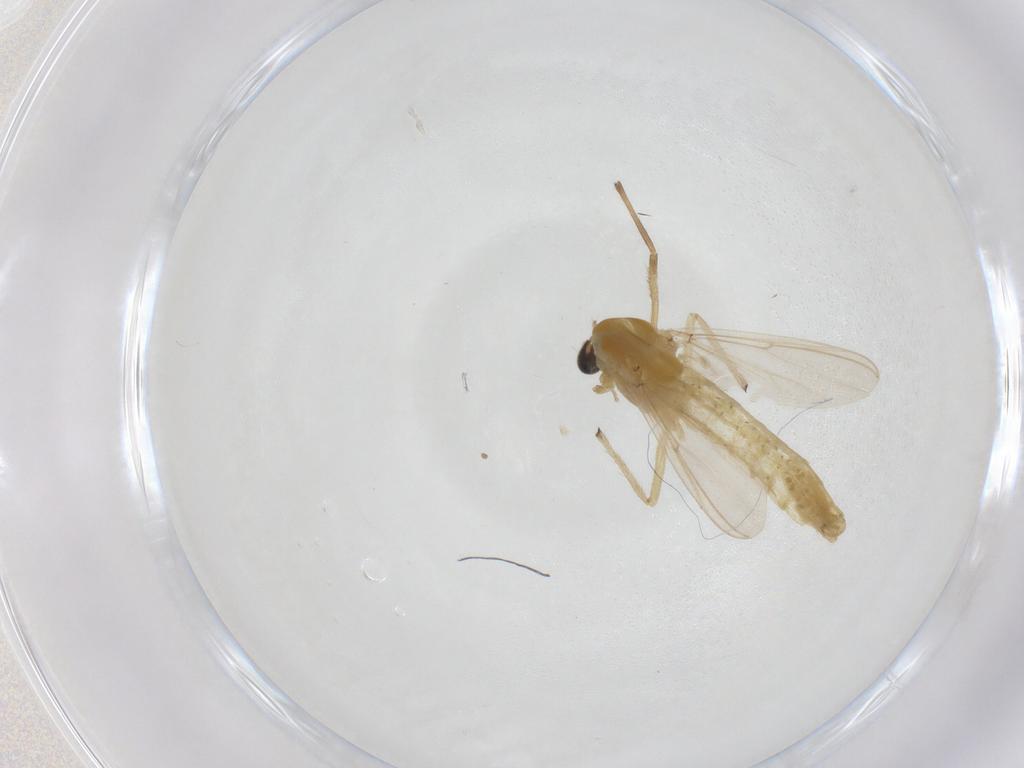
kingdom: Animalia
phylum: Arthropoda
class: Insecta
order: Diptera
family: Chironomidae
